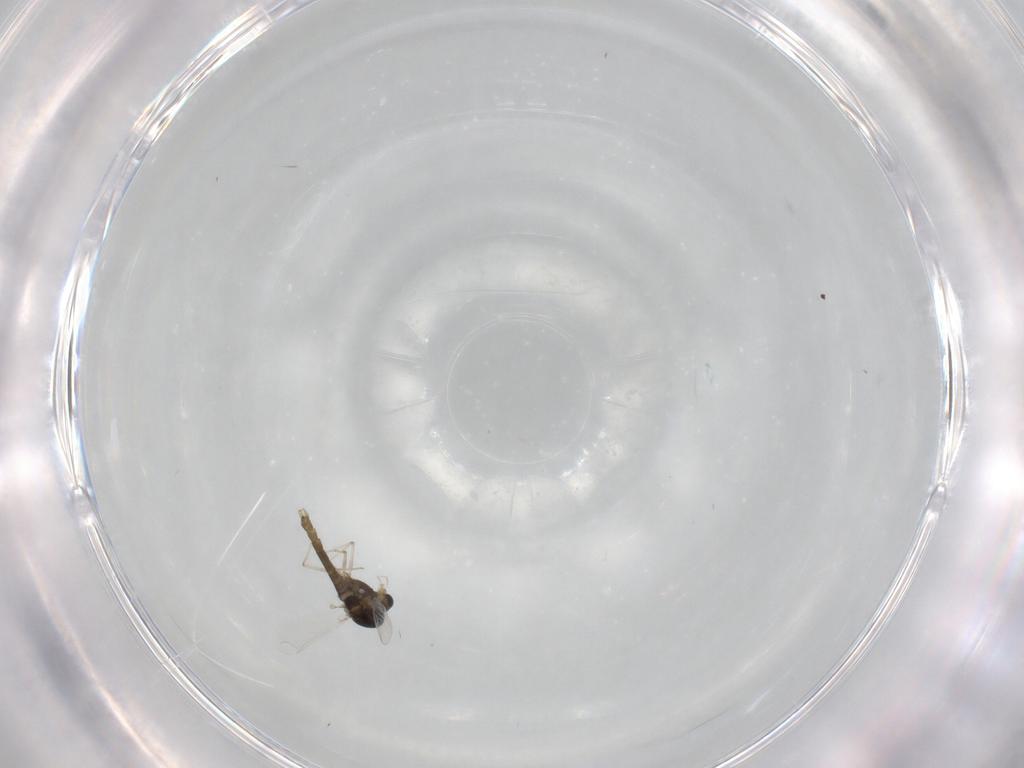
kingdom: Animalia
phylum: Arthropoda
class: Insecta
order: Diptera
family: Chironomidae
